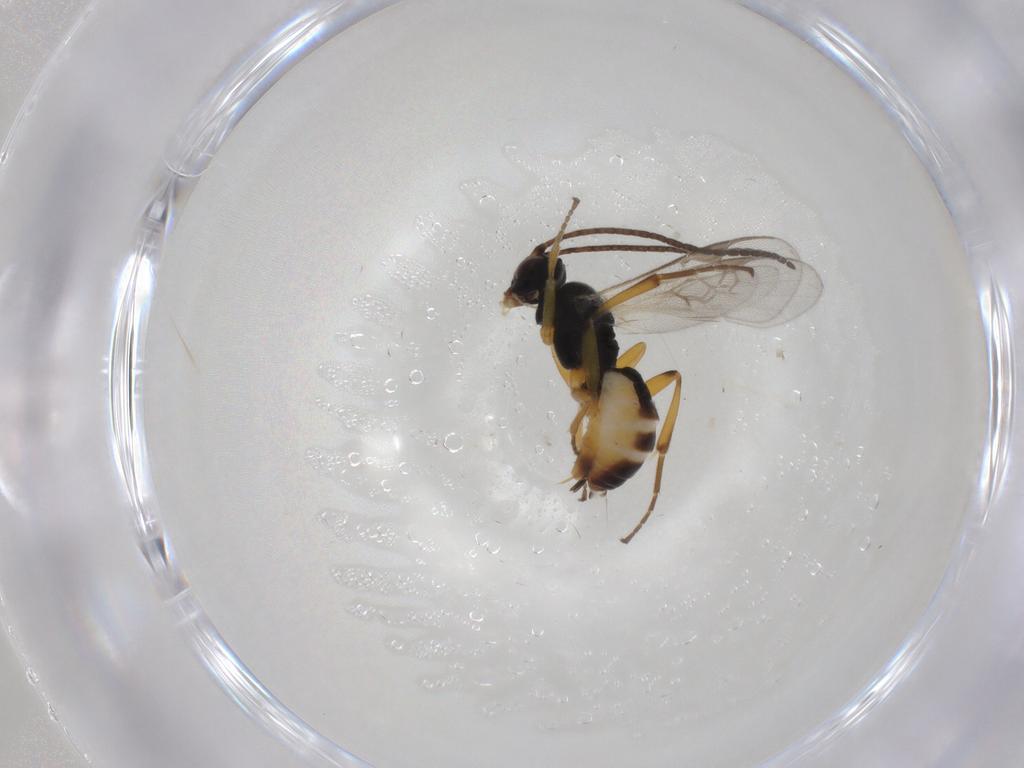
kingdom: Animalia
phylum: Arthropoda
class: Insecta
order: Hymenoptera
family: Braconidae
